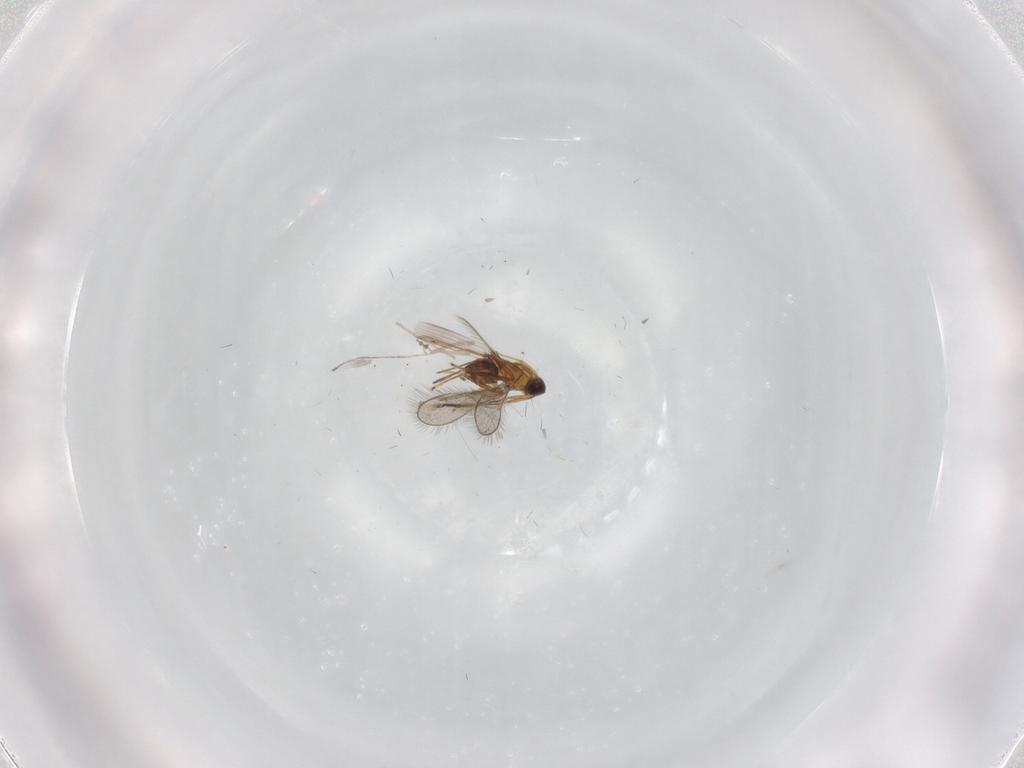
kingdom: Animalia
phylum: Arthropoda
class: Insecta
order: Hymenoptera
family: Mymaridae
